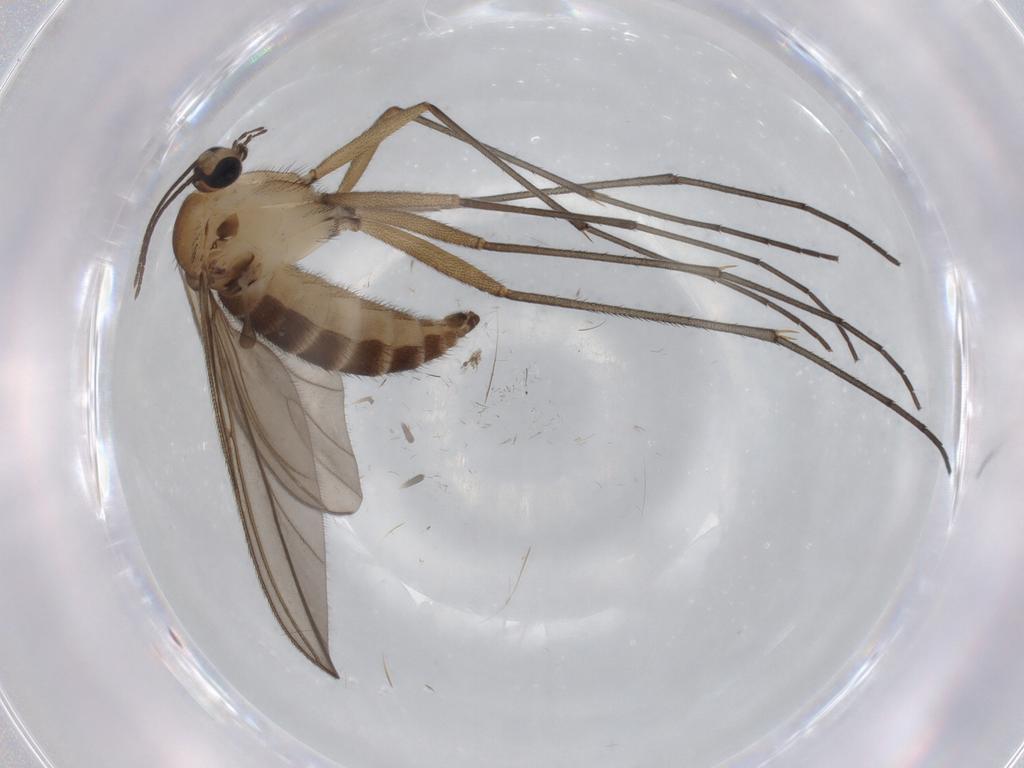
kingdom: Animalia
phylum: Arthropoda
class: Insecta
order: Diptera
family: Sciaridae
